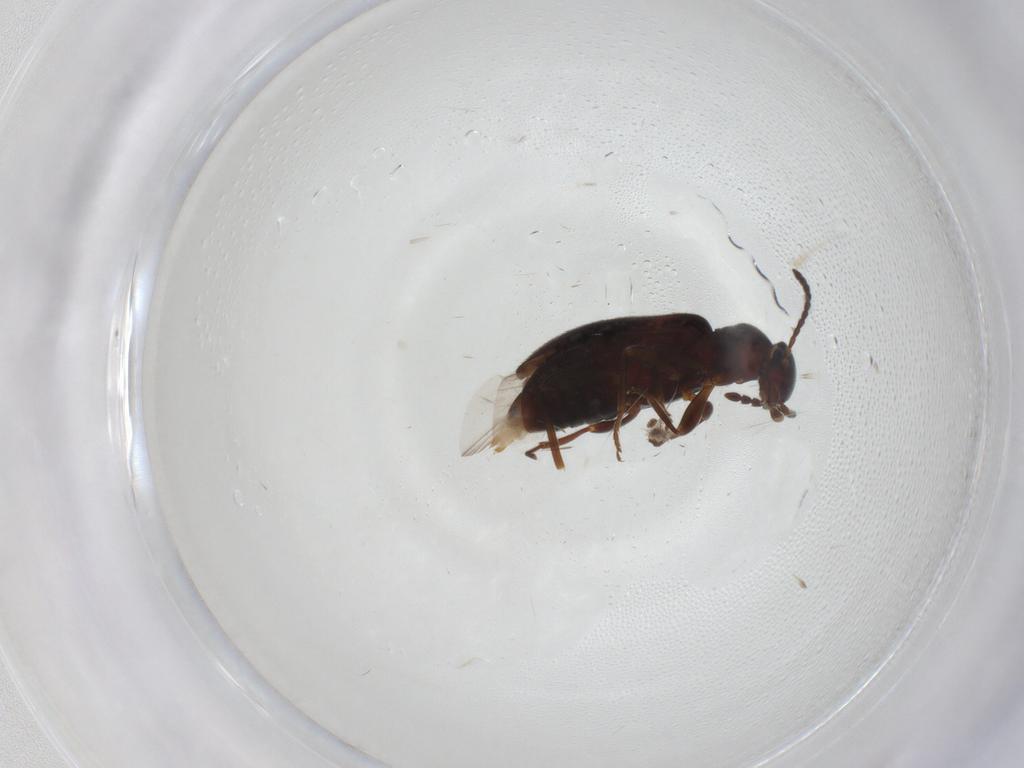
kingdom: Animalia
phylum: Arthropoda
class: Insecta
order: Coleoptera
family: Anthicidae
